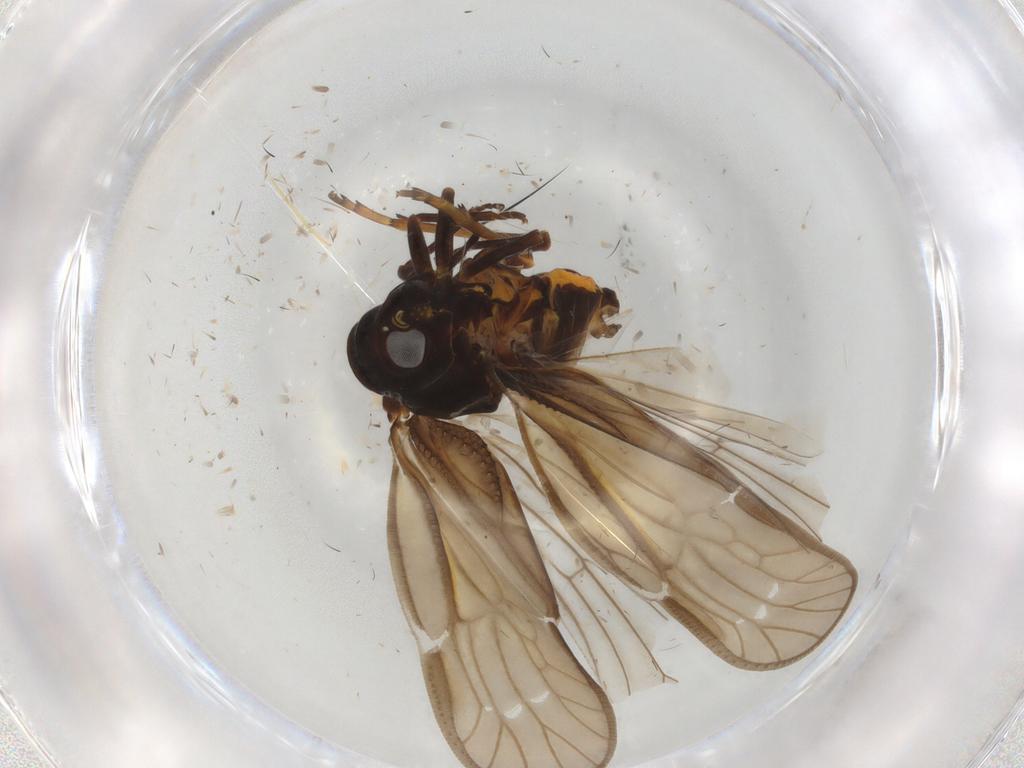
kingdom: Animalia
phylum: Arthropoda
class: Insecta
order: Hemiptera
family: Meenoplidae
